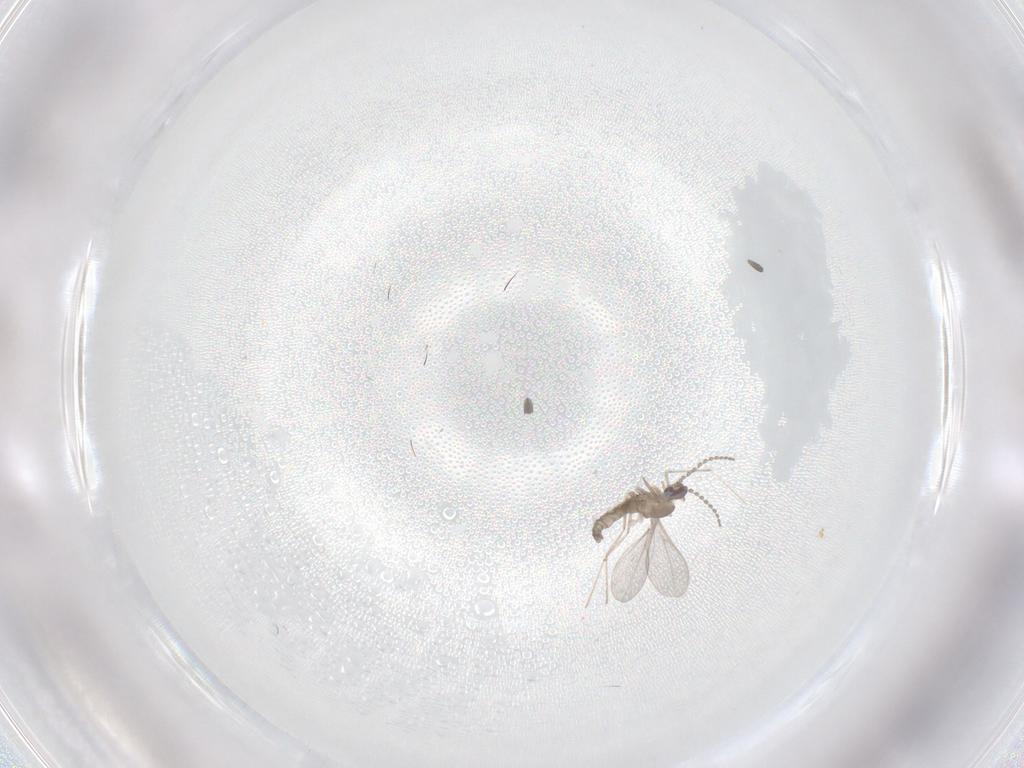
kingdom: Animalia
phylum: Arthropoda
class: Insecta
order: Diptera
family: Cecidomyiidae
